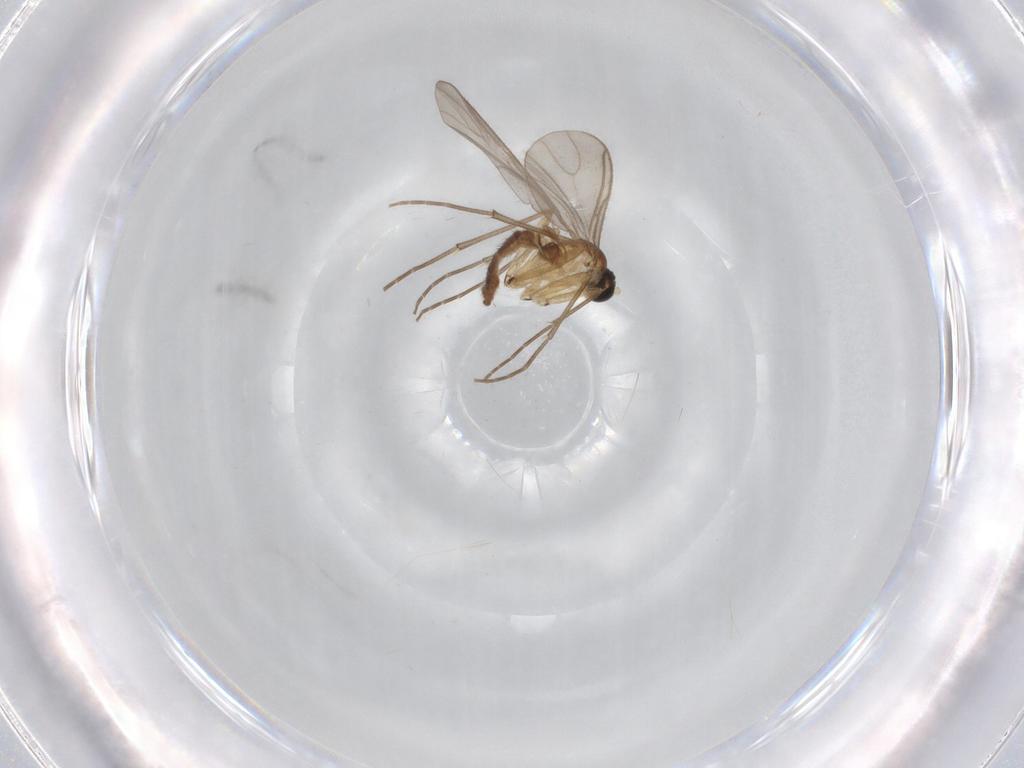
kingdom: Animalia
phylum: Arthropoda
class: Insecta
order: Diptera
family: Sciaridae
